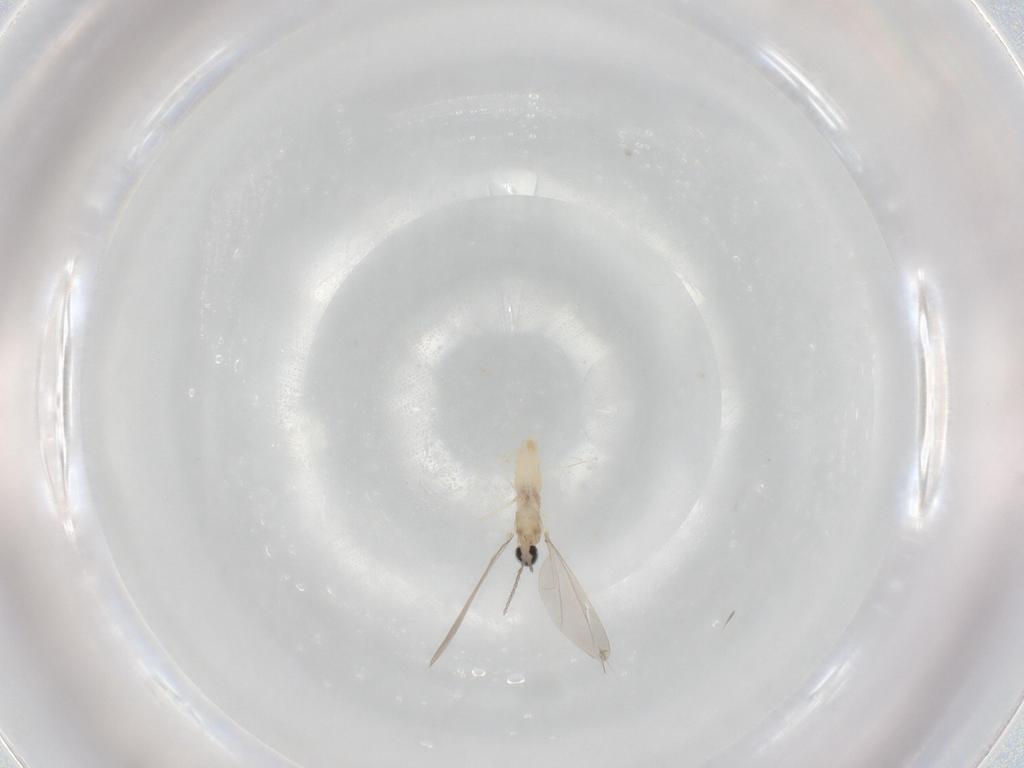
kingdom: Animalia
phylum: Arthropoda
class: Insecta
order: Diptera
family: Cecidomyiidae
